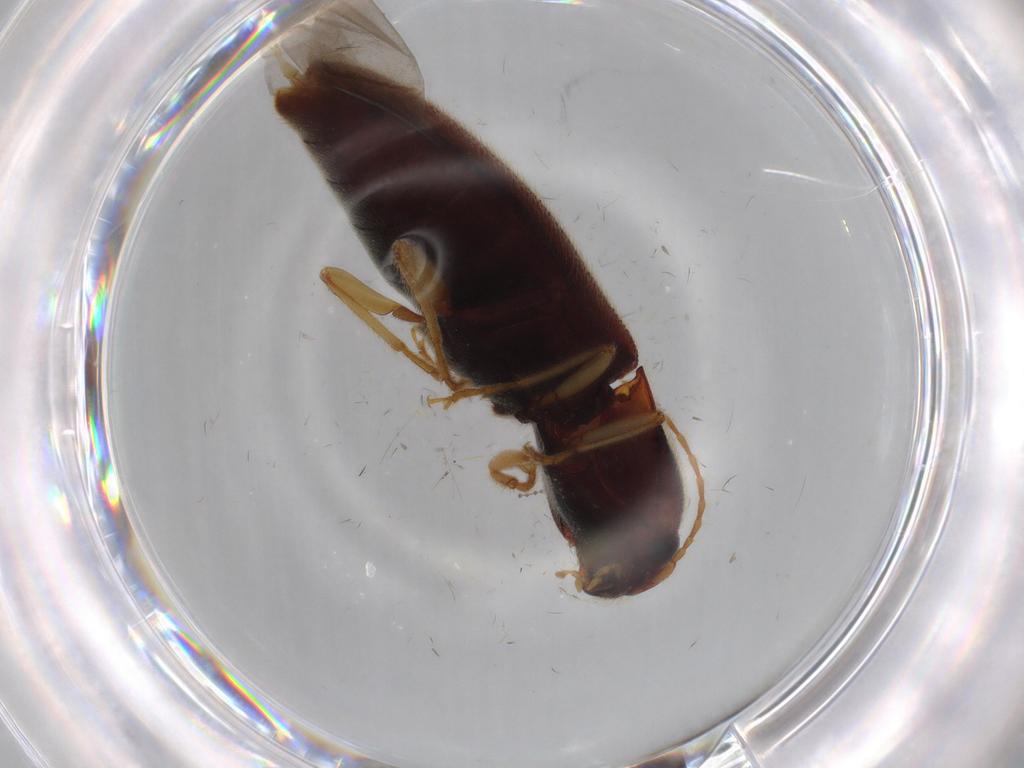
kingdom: Animalia
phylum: Arthropoda
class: Insecta
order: Coleoptera
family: Elateridae
